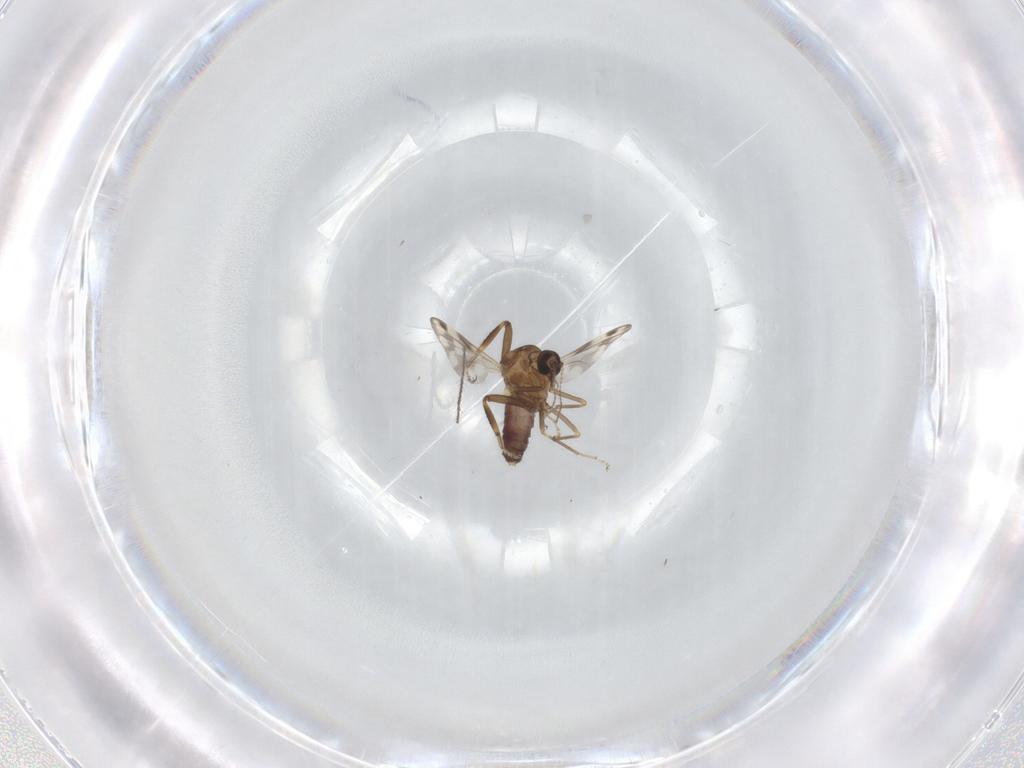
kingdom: Animalia
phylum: Arthropoda
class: Insecta
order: Diptera
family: Ceratopogonidae
